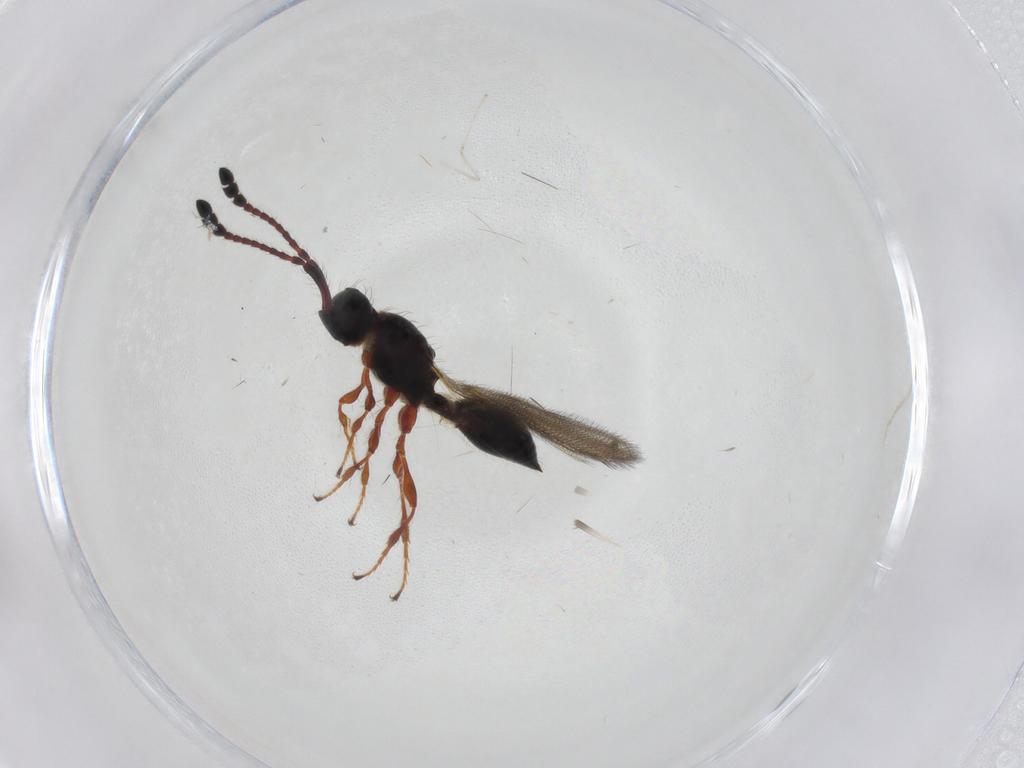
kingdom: Animalia
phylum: Arthropoda
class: Insecta
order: Hymenoptera
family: Diapriidae
